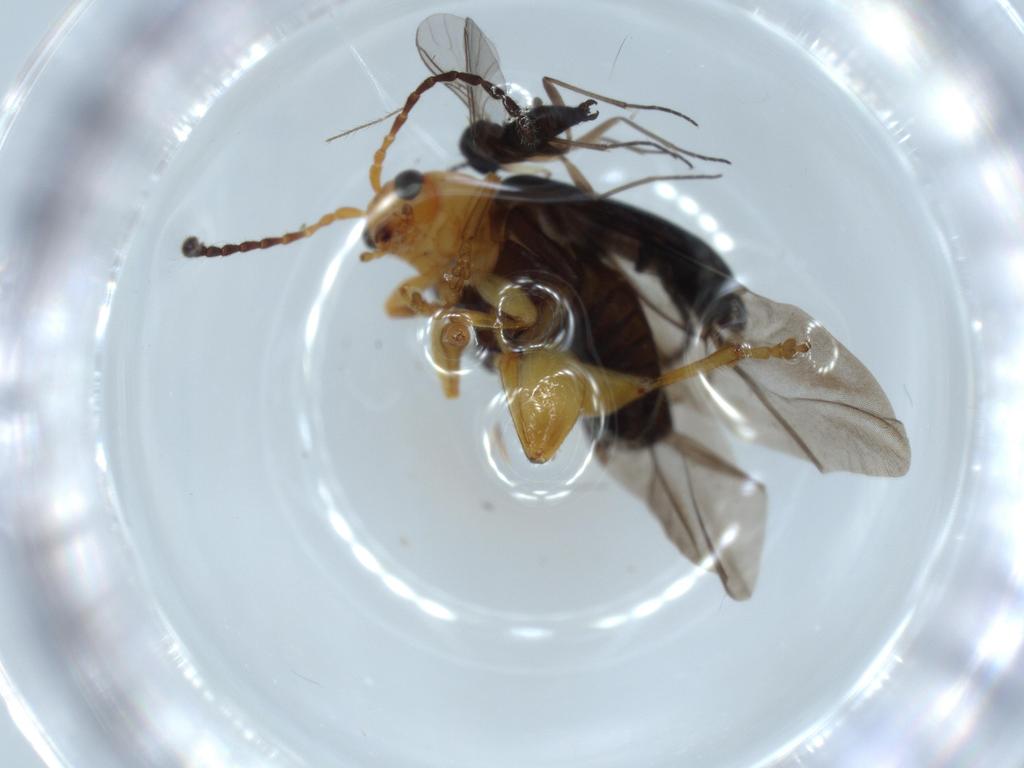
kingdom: Animalia
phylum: Arthropoda
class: Insecta
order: Coleoptera
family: Chrysomelidae
